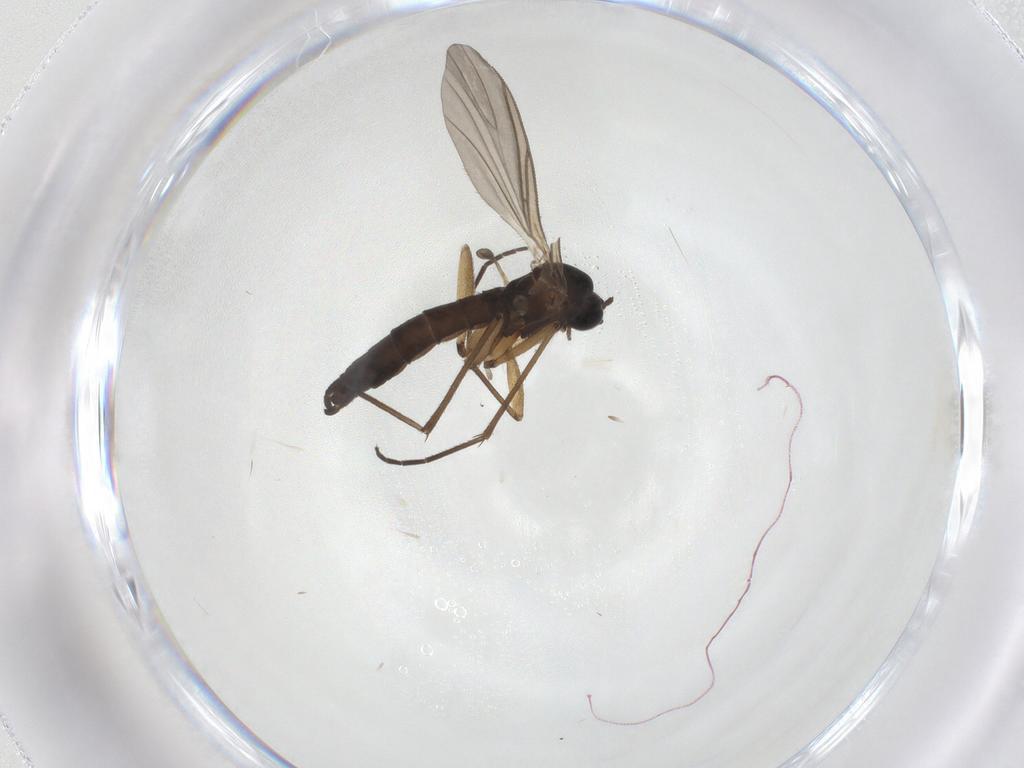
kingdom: Animalia
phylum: Arthropoda
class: Insecta
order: Diptera
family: Sciaridae
